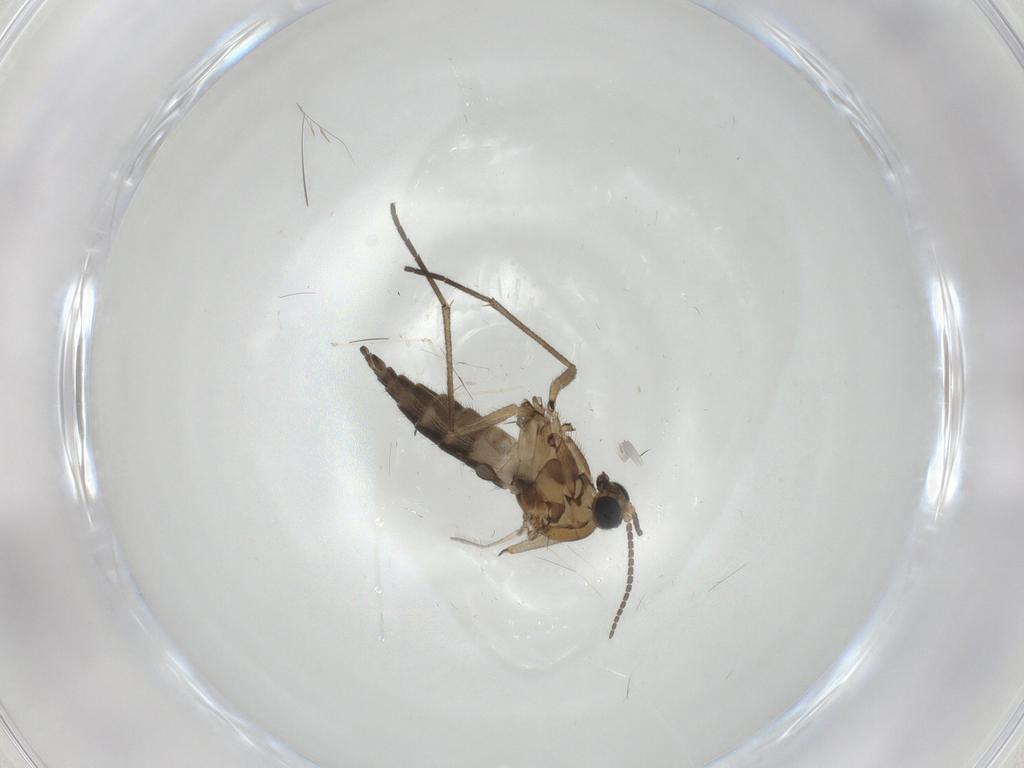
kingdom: Animalia
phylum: Arthropoda
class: Insecta
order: Diptera
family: Sciaridae
